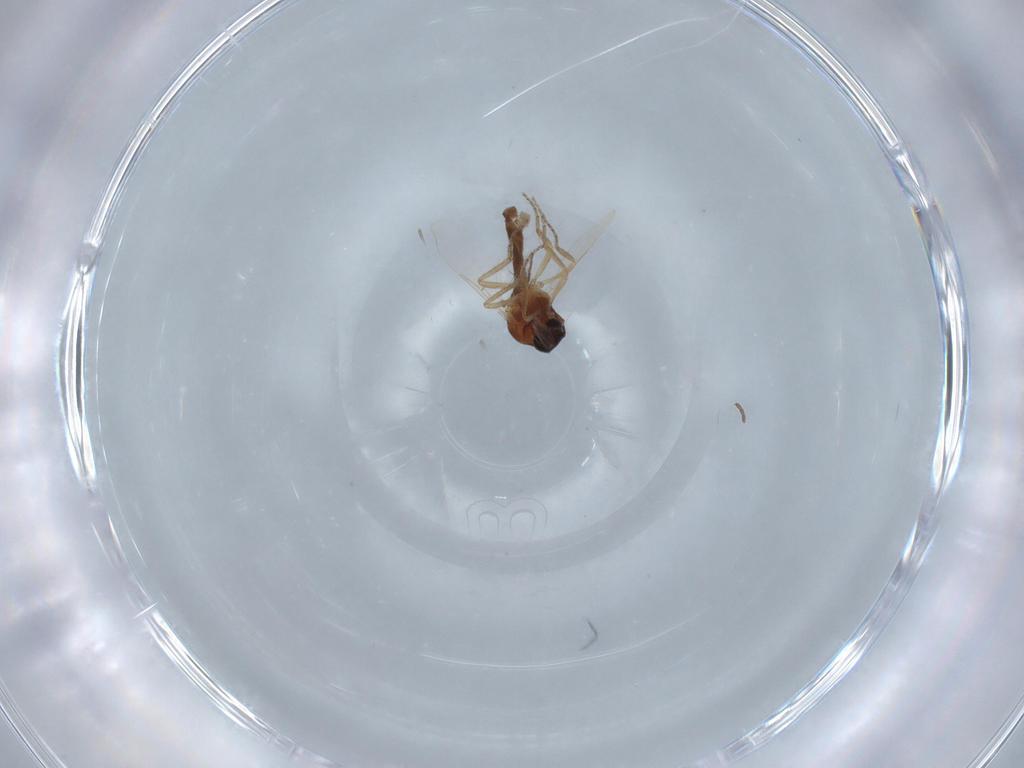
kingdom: Animalia
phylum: Arthropoda
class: Insecta
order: Diptera
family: Ceratopogonidae
